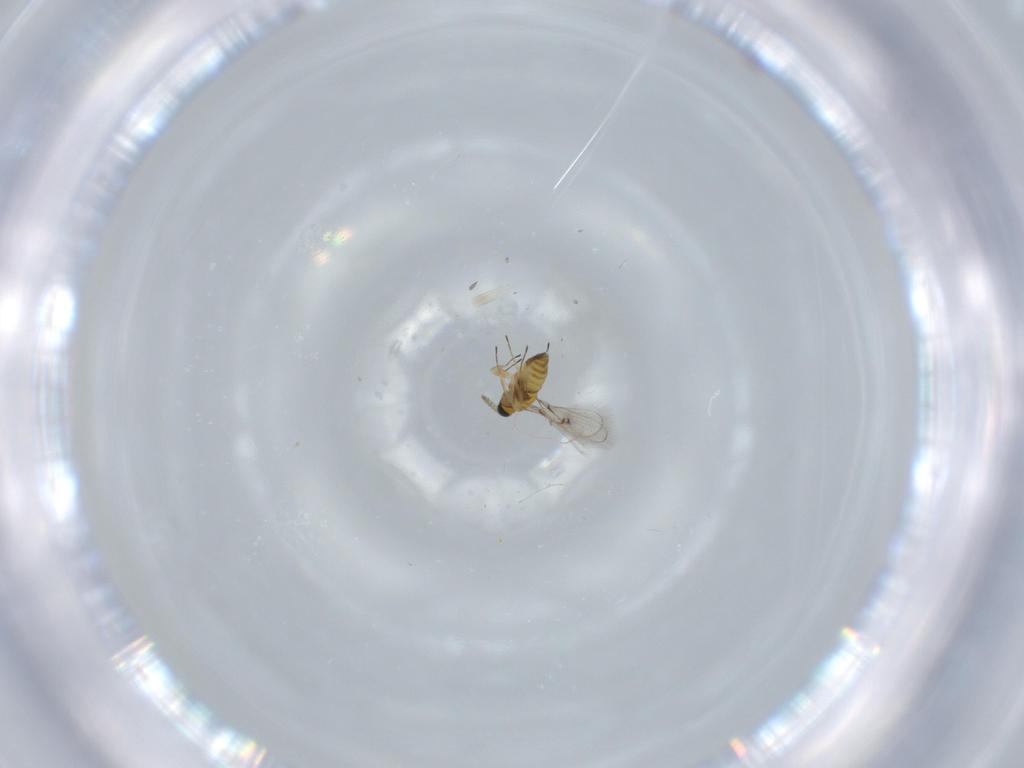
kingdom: Animalia
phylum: Arthropoda
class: Insecta
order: Hymenoptera
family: Trichogrammatidae
